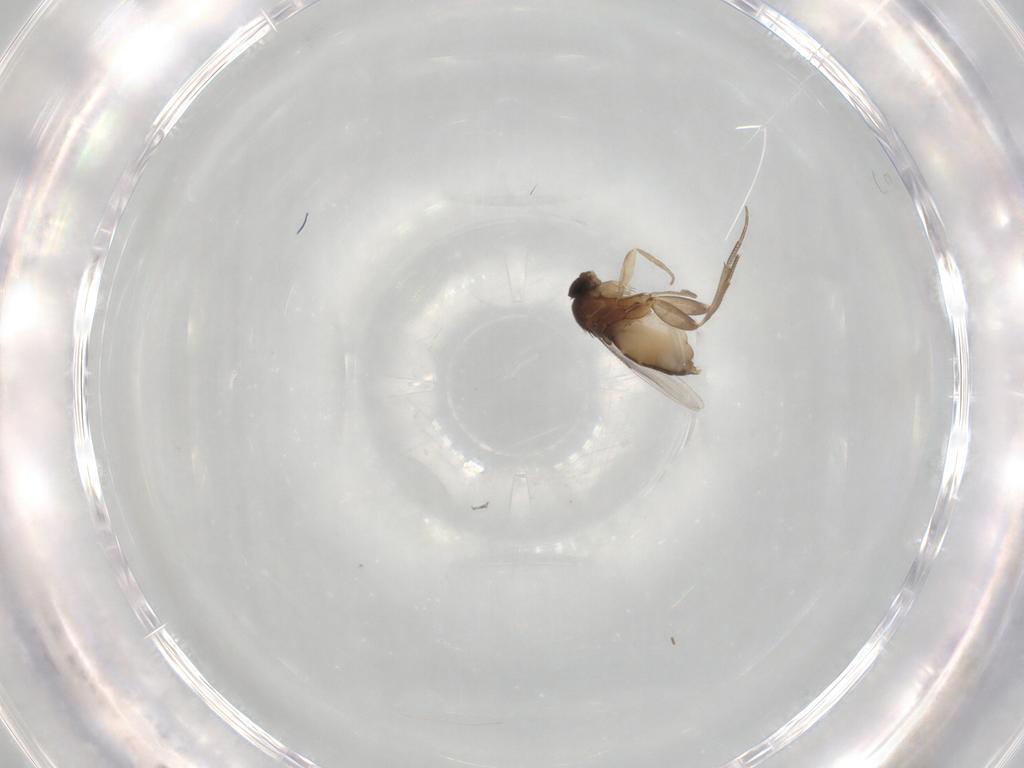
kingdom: Animalia
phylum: Arthropoda
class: Insecta
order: Diptera
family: Phoridae
